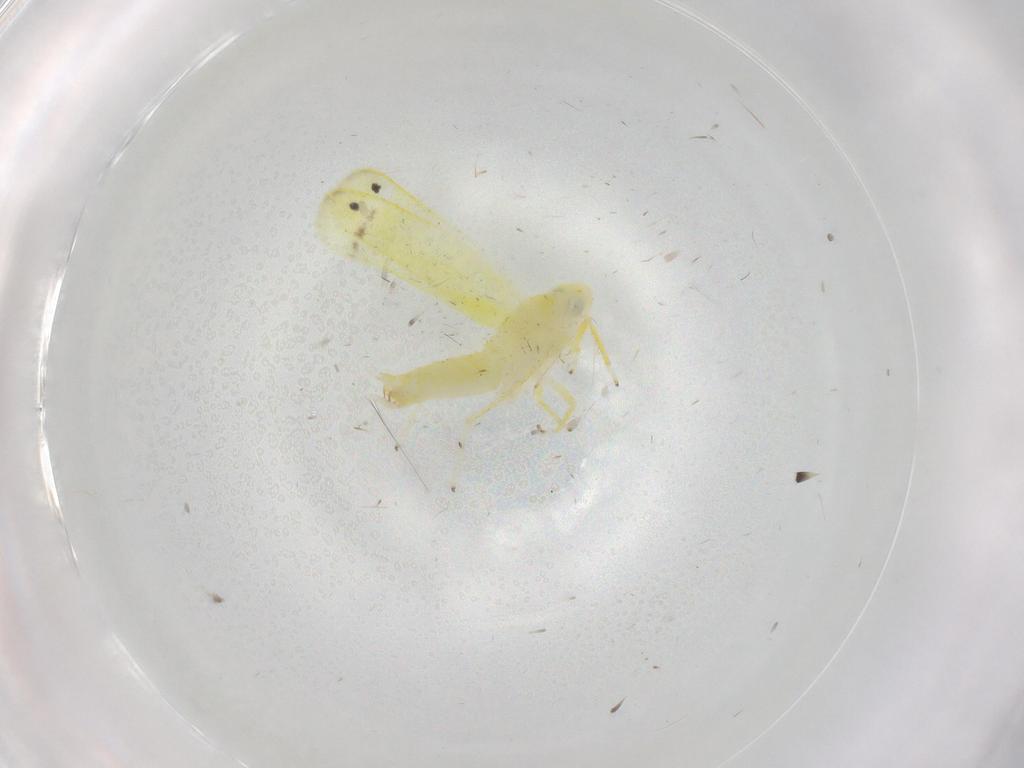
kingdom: Animalia
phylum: Arthropoda
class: Insecta
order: Hemiptera
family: Cicadellidae
